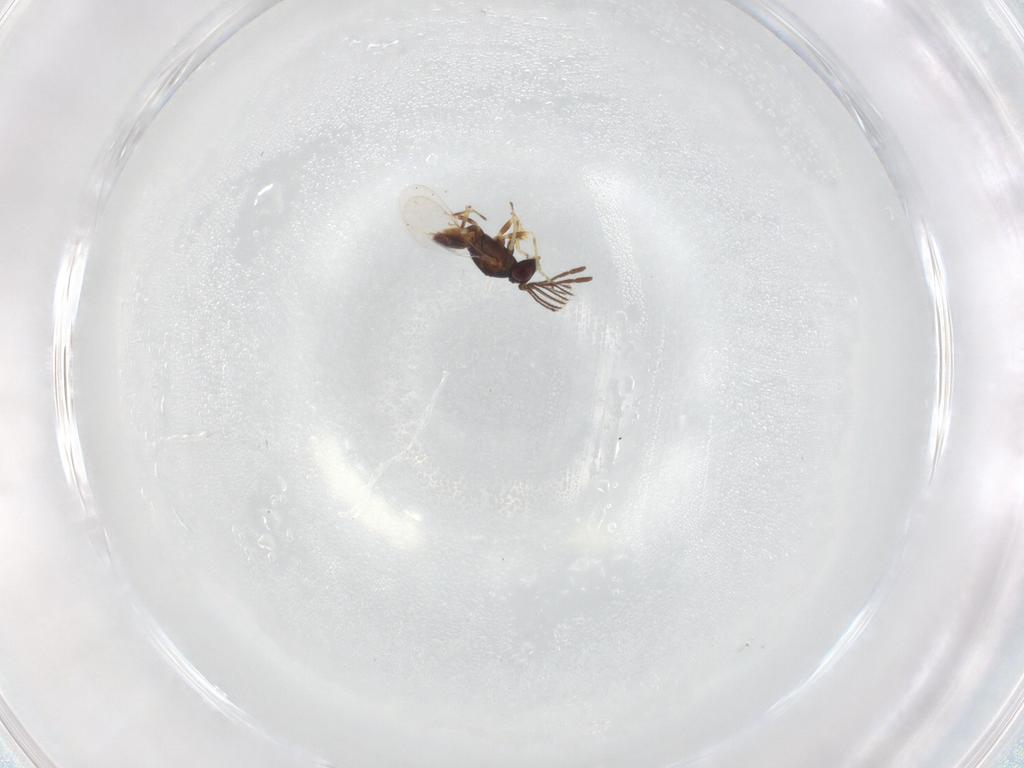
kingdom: Animalia
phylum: Arthropoda
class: Insecta
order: Hymenoptera
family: Encyrtidae
